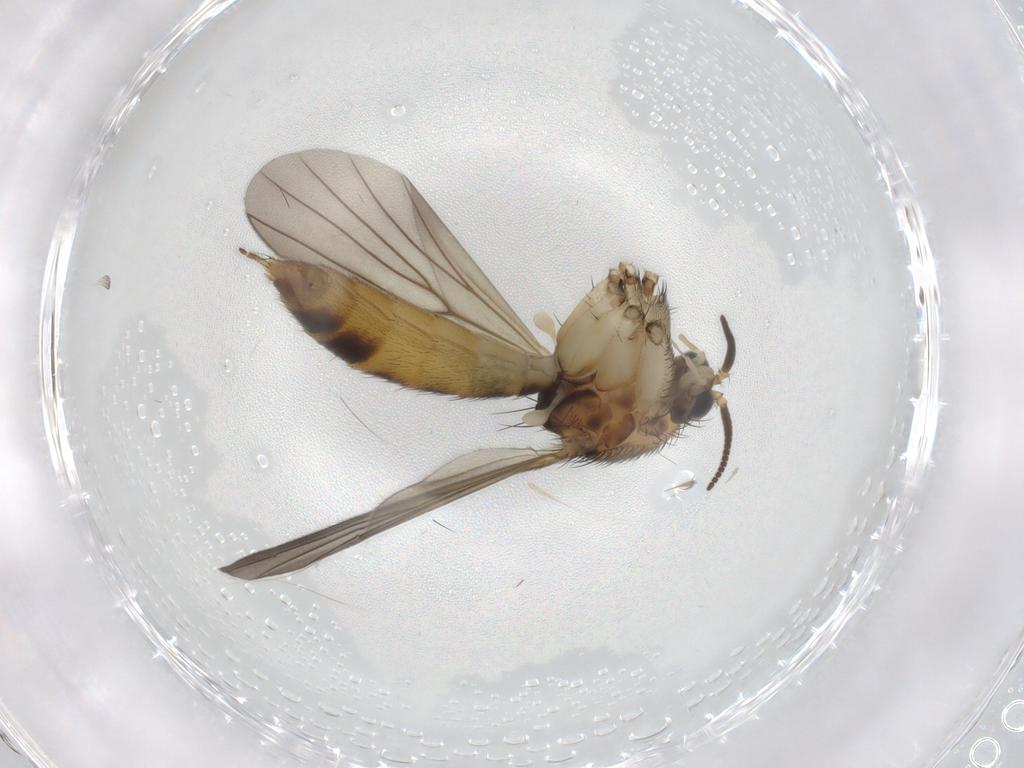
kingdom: Animalia
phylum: Arthropoda
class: Insecta
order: Diptera
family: Mycetophilidae
